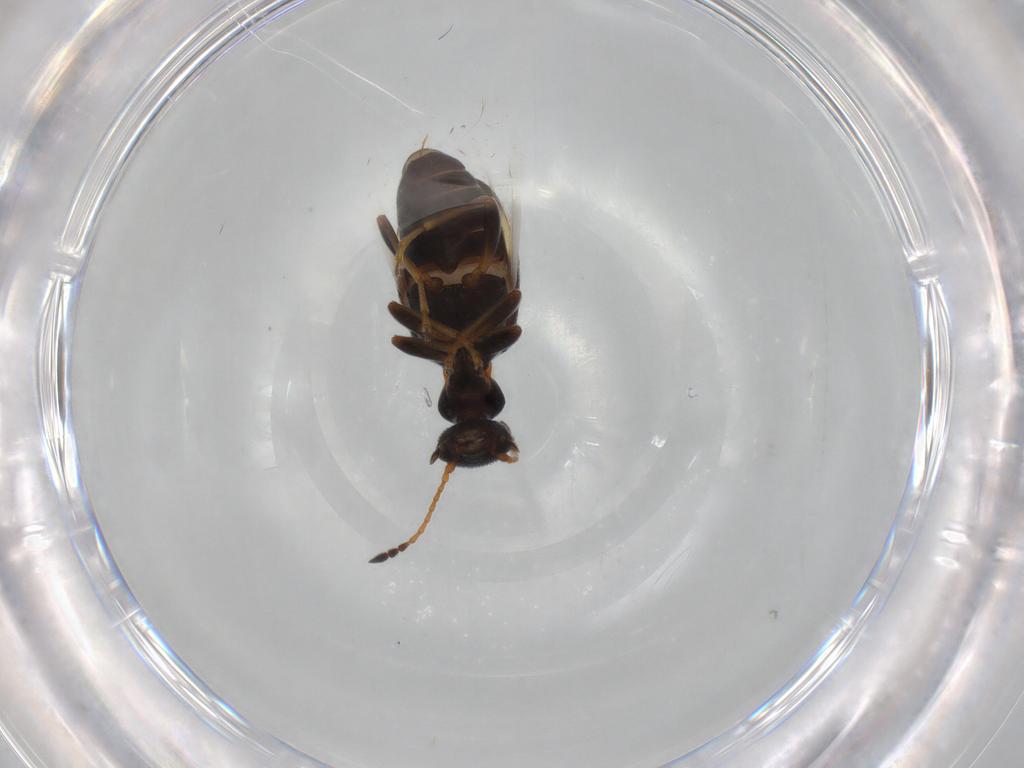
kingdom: Animalia
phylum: Arthropoda
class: Insecta
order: Coleoptera
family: Anthicidae
